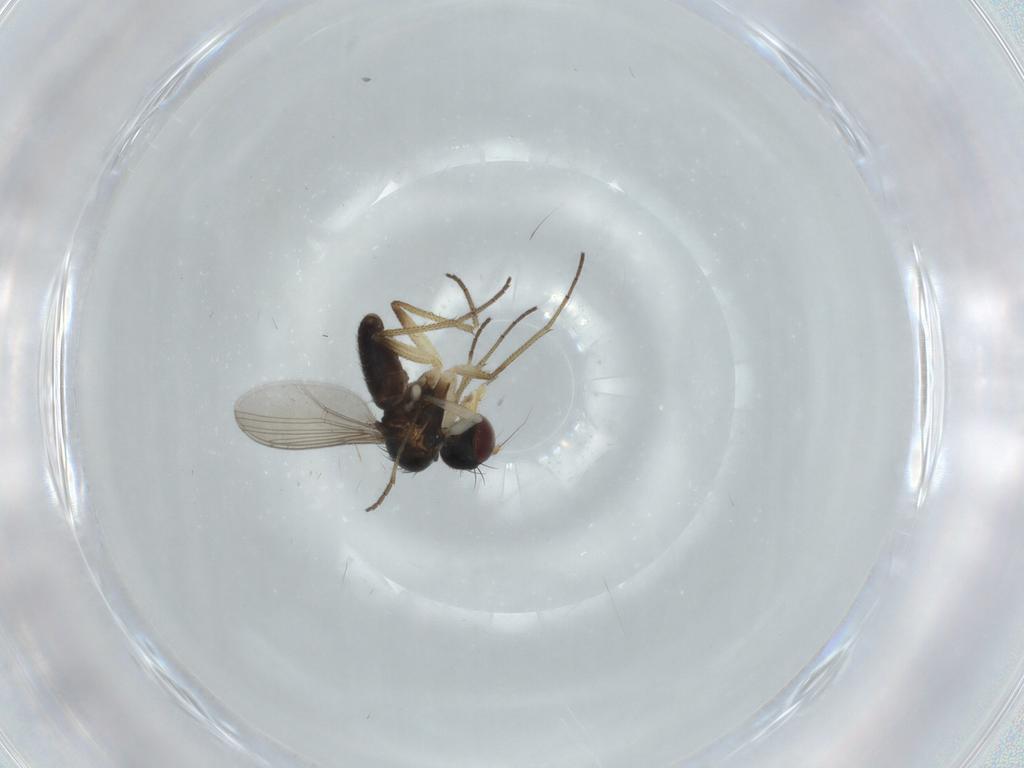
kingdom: Animalia
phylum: Arthropoda
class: Insecta
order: Diptera
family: Dolichopodidae
